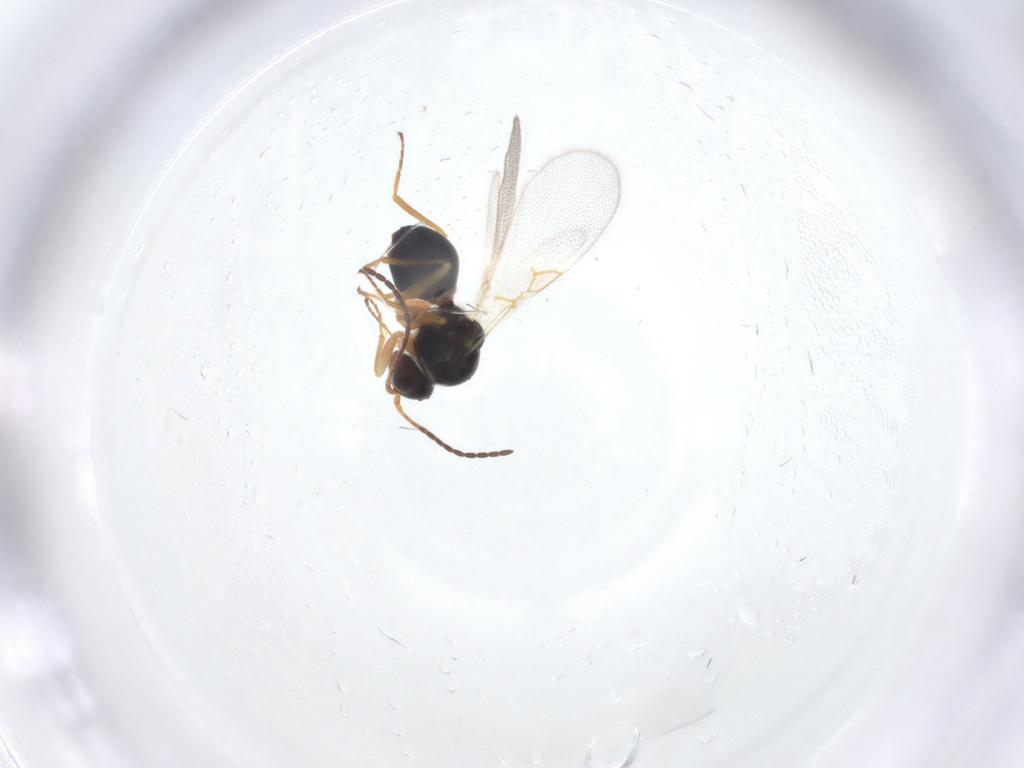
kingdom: Animalia
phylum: Arthropoda
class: Insecta
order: Hymenoptera
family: Figitidae
